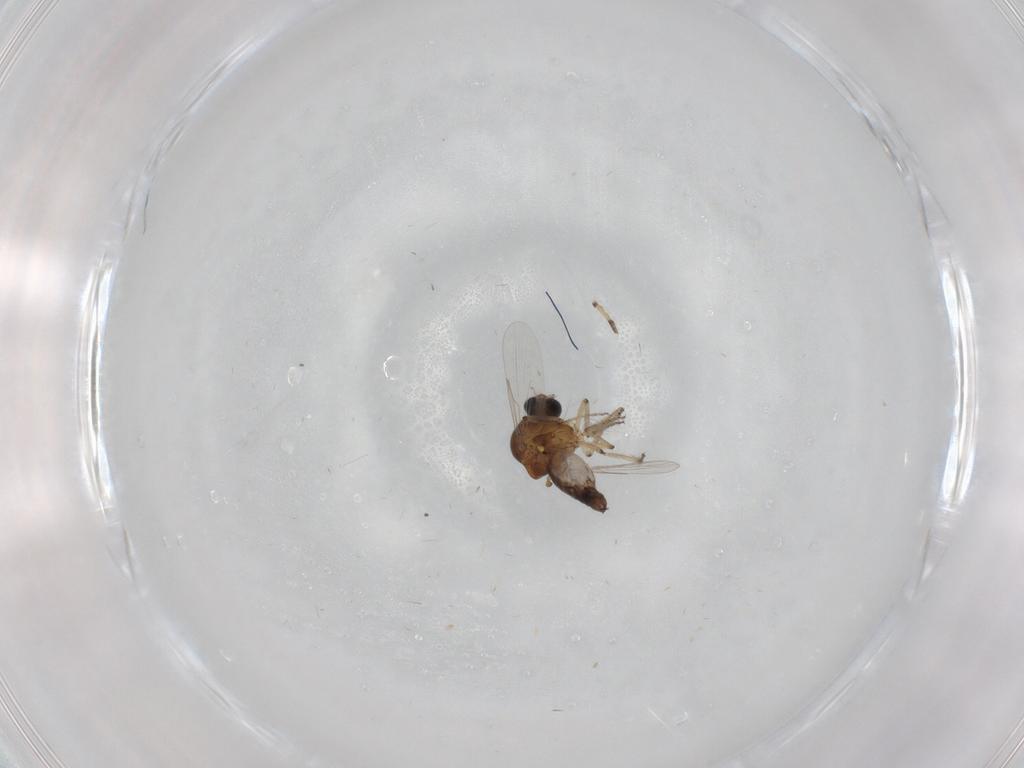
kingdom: Animalia
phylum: Arthropoda
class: Insecta
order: Diptera
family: Ceratopogonidae
